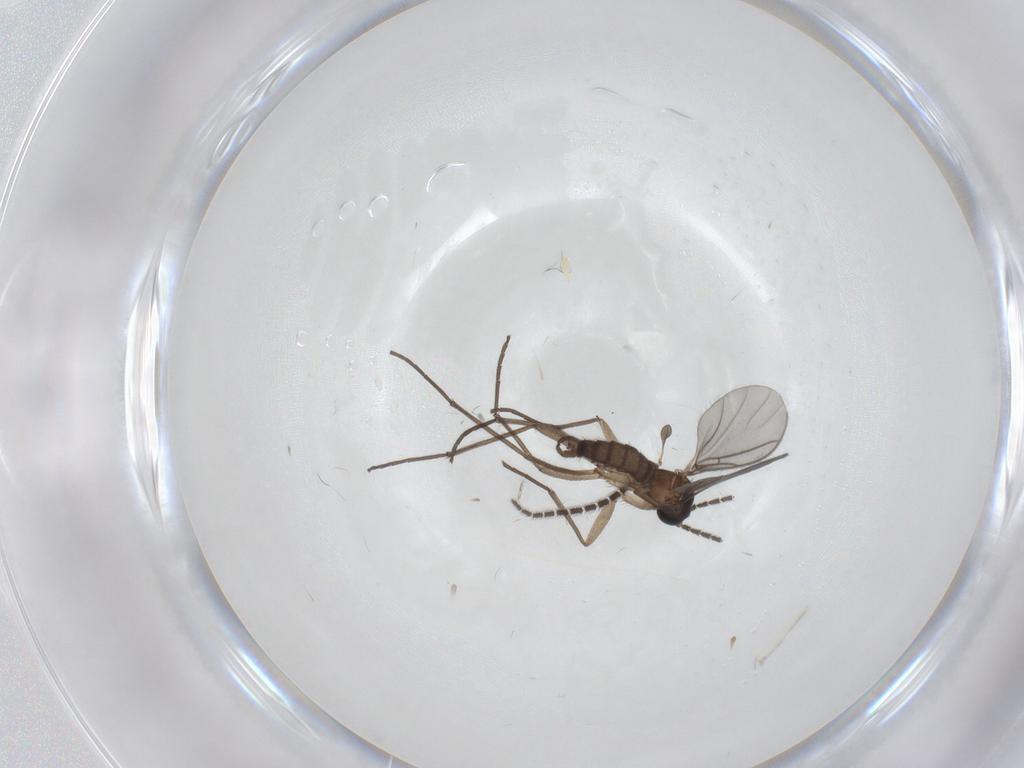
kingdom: Animalia
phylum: Arthropoda
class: Insecta
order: Diptera
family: Sciaridae
